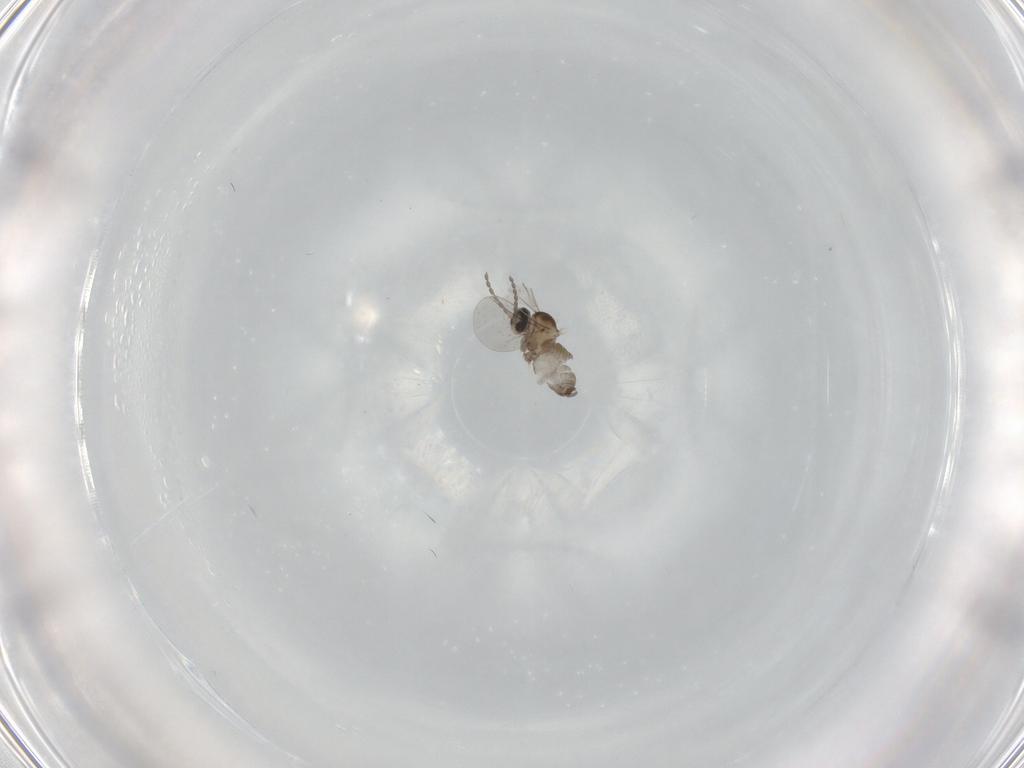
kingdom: Animalia
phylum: Arthropoda
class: Insecta
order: Diptera
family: Cecidomyiidae
